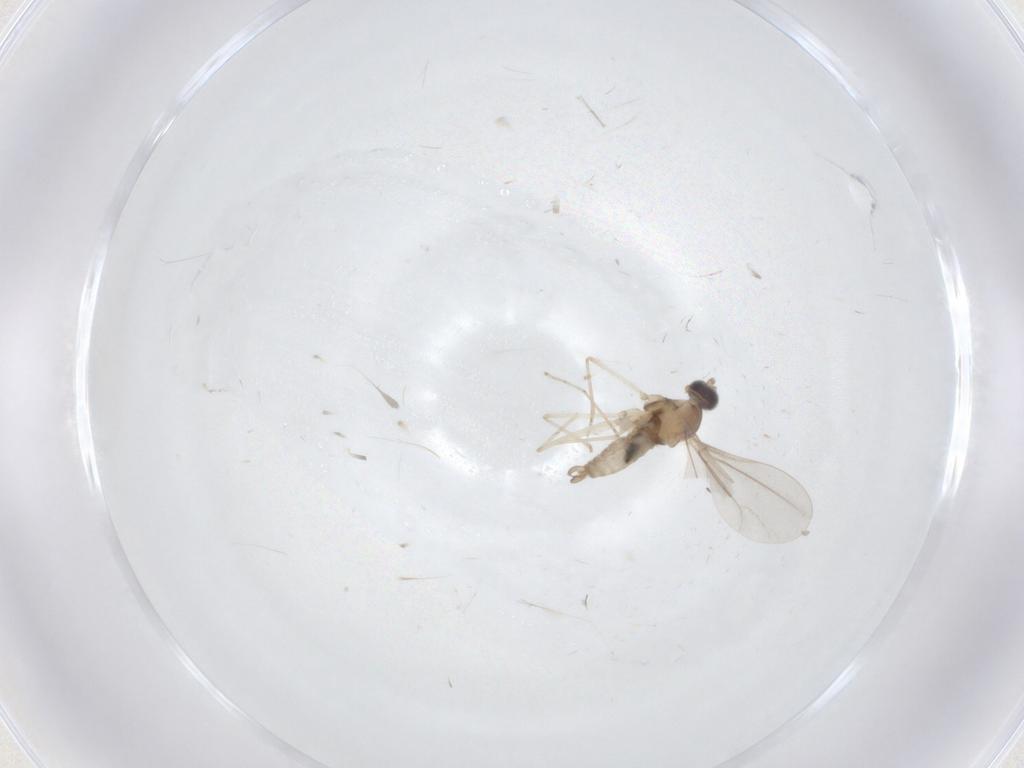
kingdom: Animalia
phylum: Arthropoda
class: Insecta
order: Diptera
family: Cecidomyiidae
